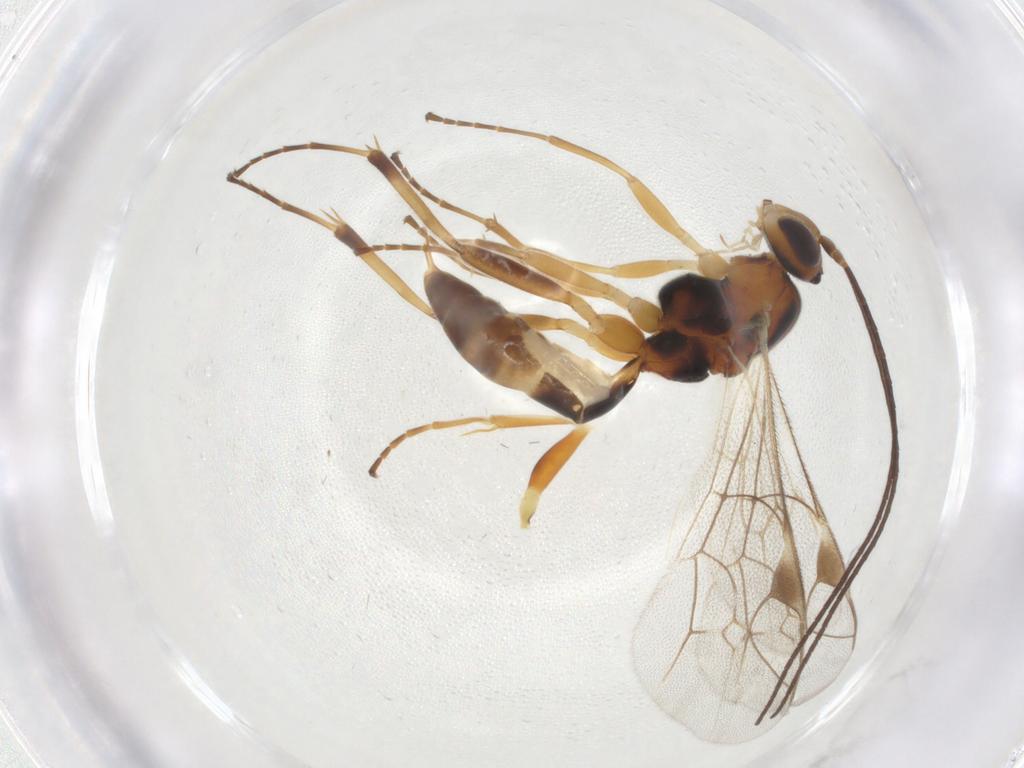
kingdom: Animalia
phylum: Arthropoda
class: Insecta
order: Hymenoptera
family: Ichneumonidae
